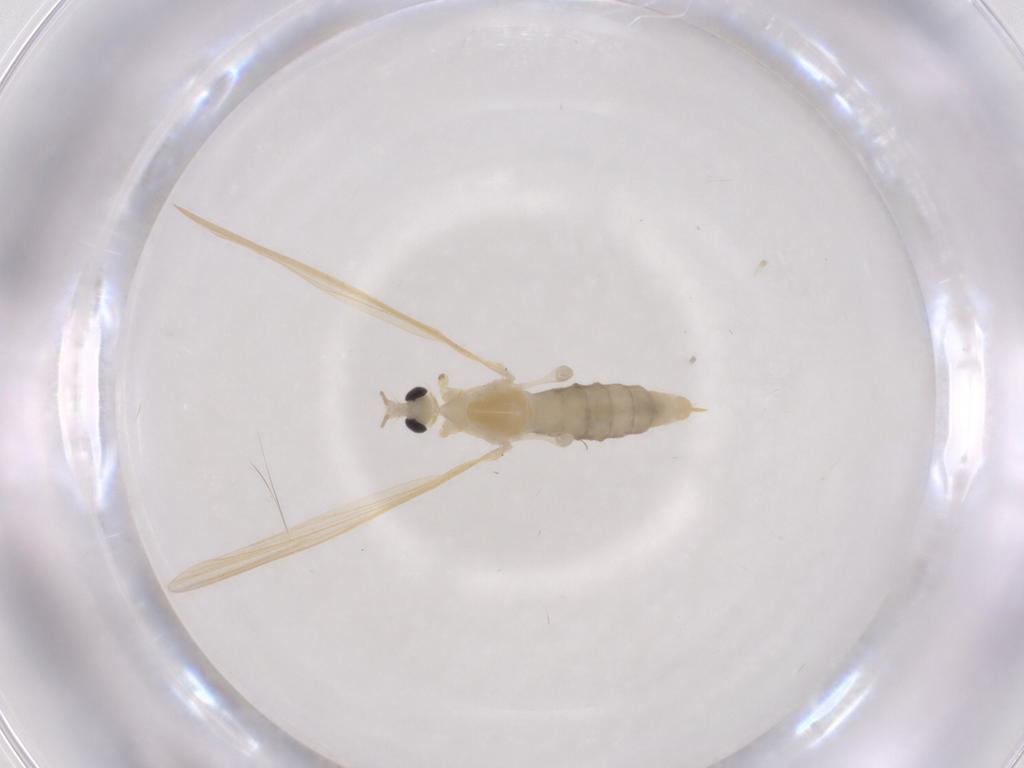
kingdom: Animalia
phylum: Arthropoda
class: Insecta
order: Diptera
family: Limoniidae
